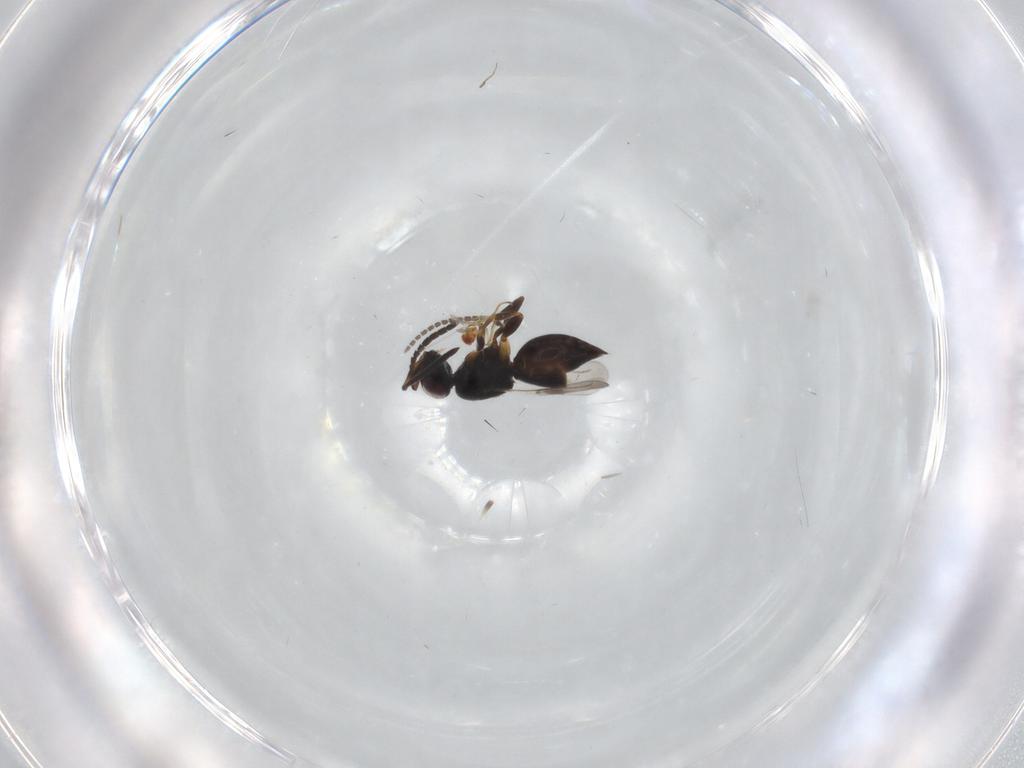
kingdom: Animalia
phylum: Arthropoda
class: Insecta
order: Hymenoptera
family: Mymaridae
